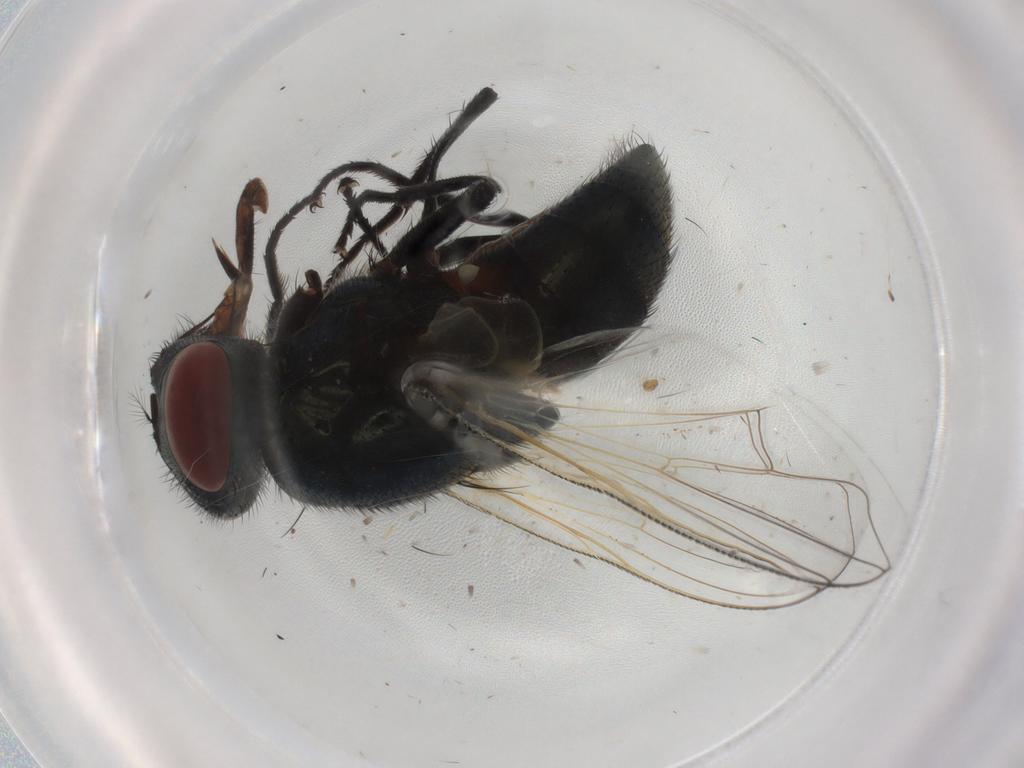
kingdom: Animalia
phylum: Arthropoda
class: Insecta
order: Diptera
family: Muscidae
